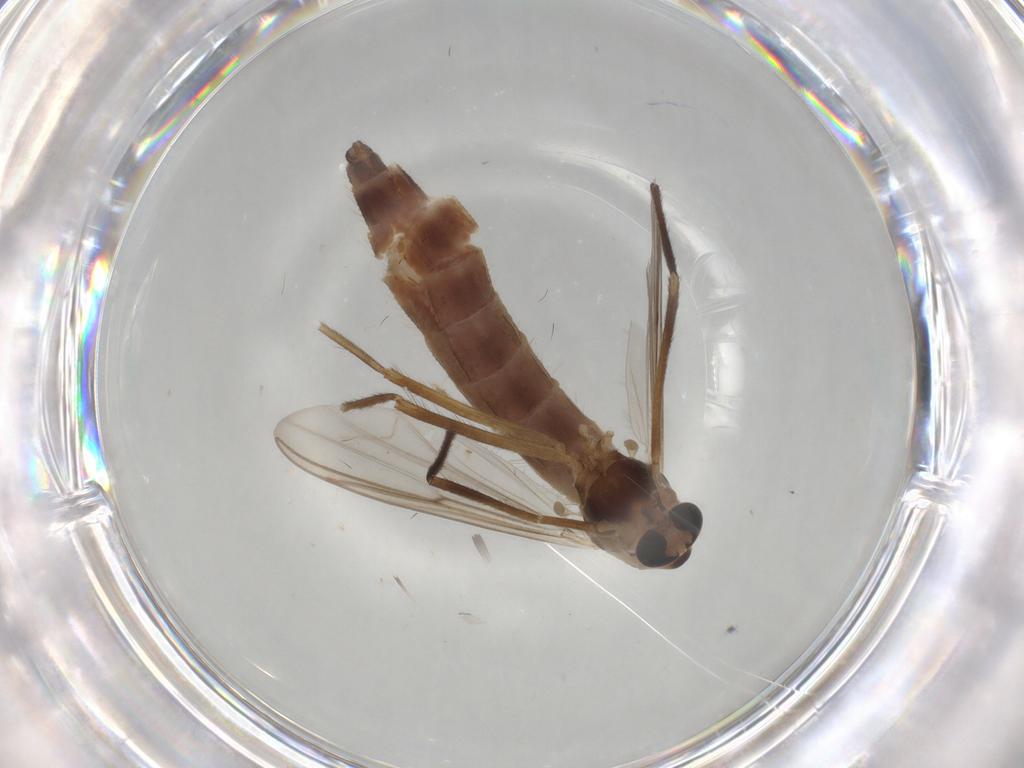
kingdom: Animalia
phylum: Arthropoda
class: Insecta
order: Diptera
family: Chironomidae
